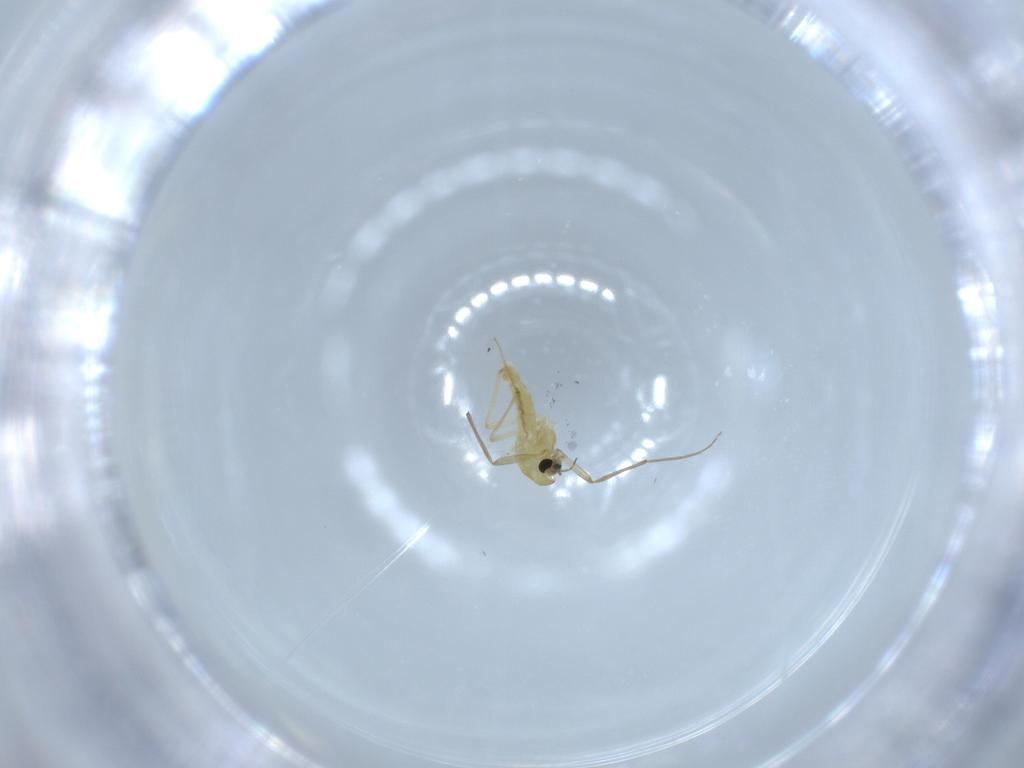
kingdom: Animalia
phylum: Arthropoda
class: Insecta
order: Diptera
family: Chironomidae
